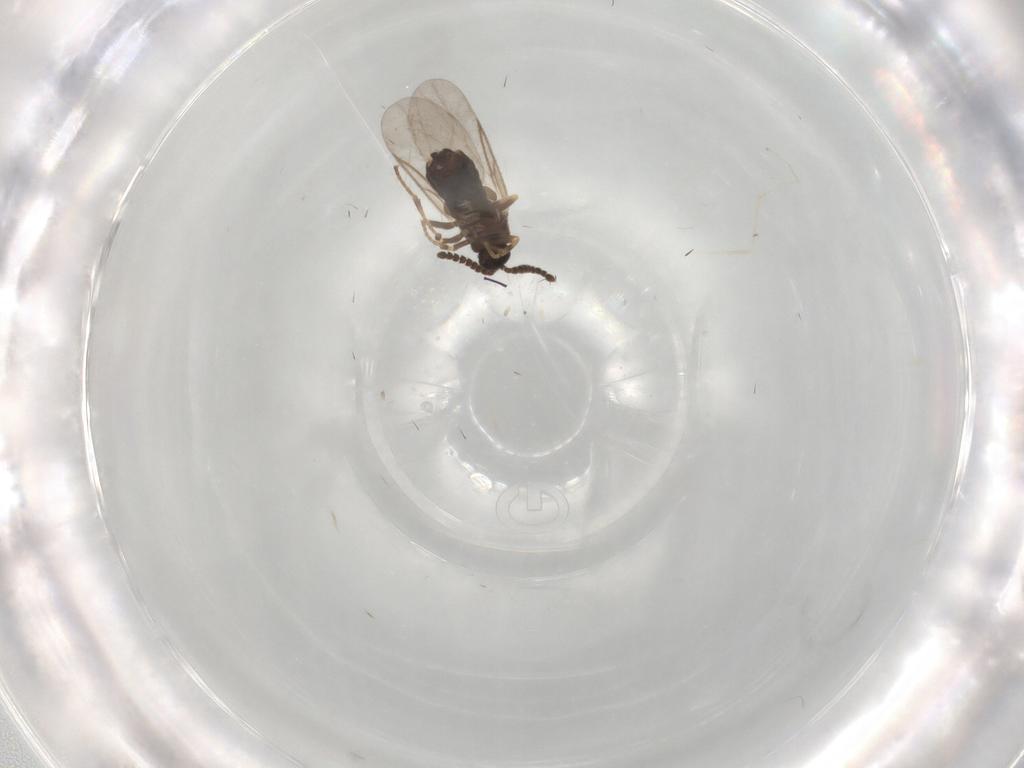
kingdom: Animalia
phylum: Arthropoda
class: Insecta
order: Diptera
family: Cecidomyiidae
